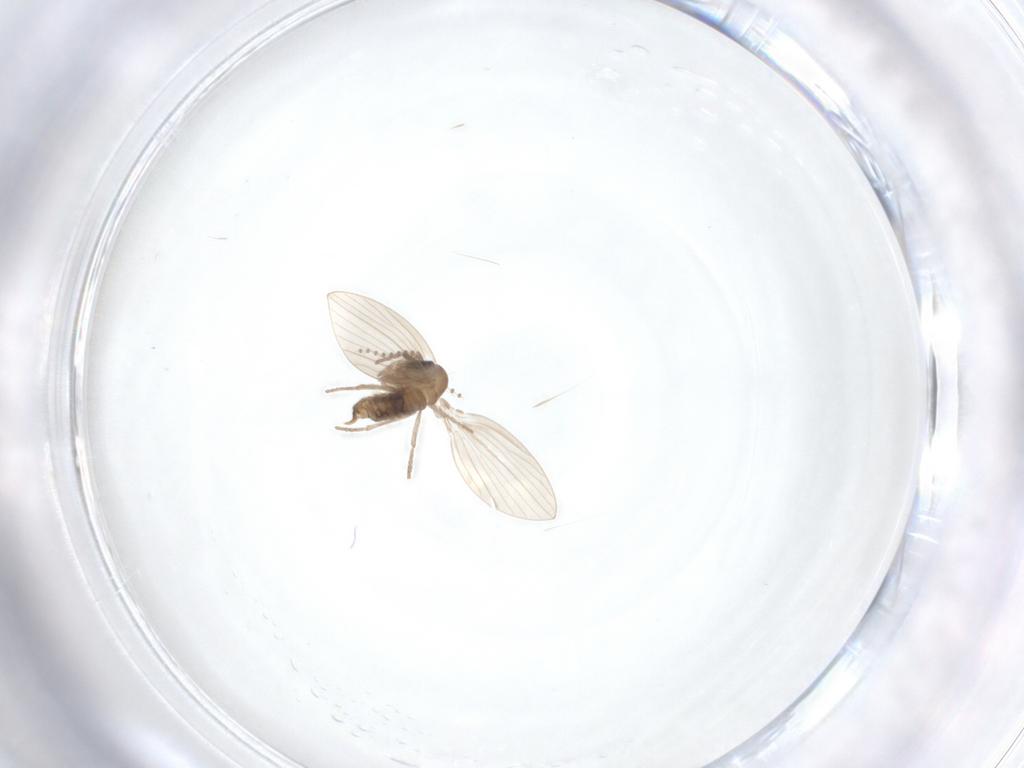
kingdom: Animalia
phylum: Arthropoda
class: Insecta
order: Diptera
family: Psychodidae
